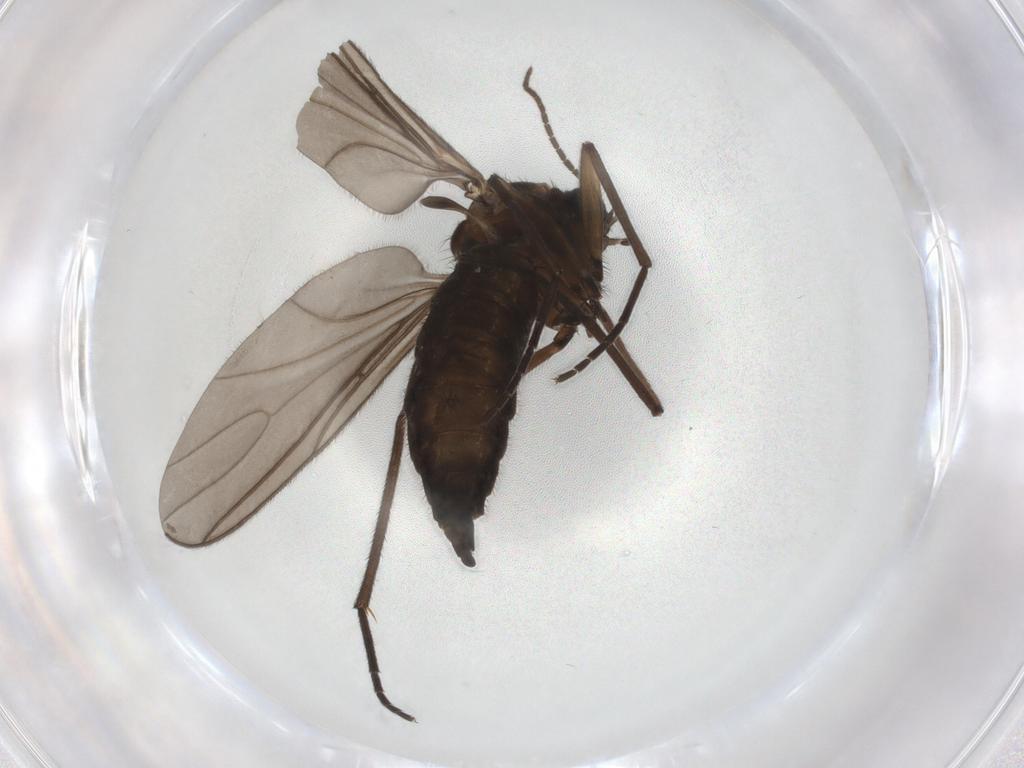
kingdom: Animalia
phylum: Arthropoda
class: Insecta
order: Diptera
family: Sciaridae
